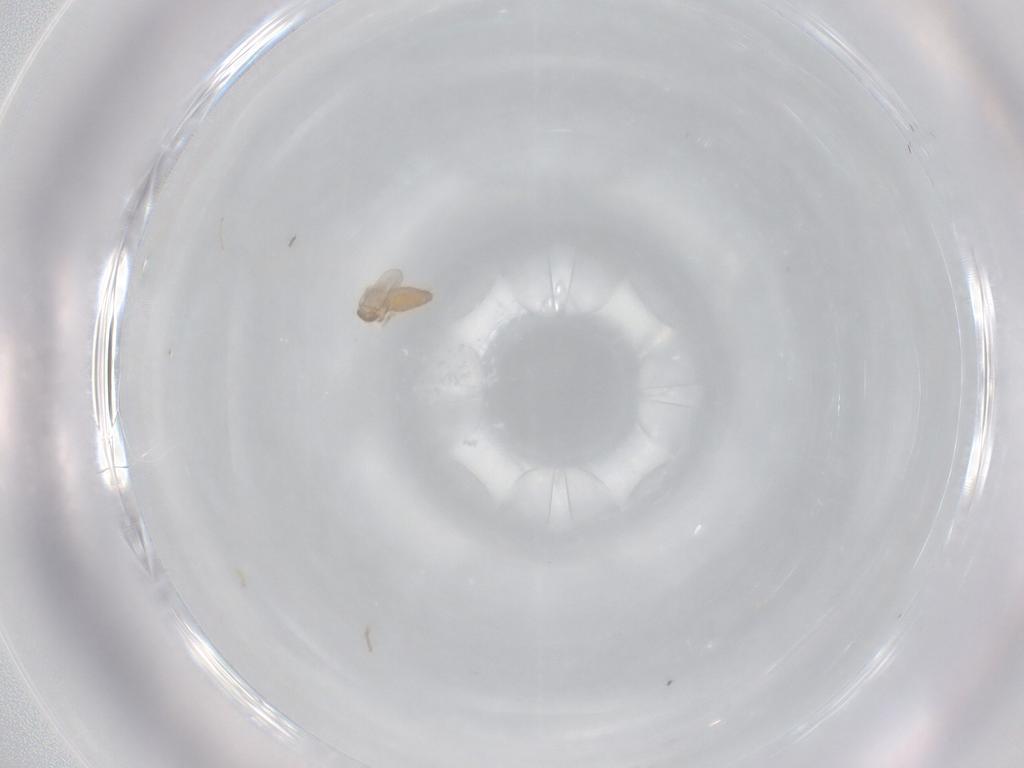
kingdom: Animalia
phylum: Arthropoda
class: Insecta
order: Diptera
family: Cecidomyiidae
